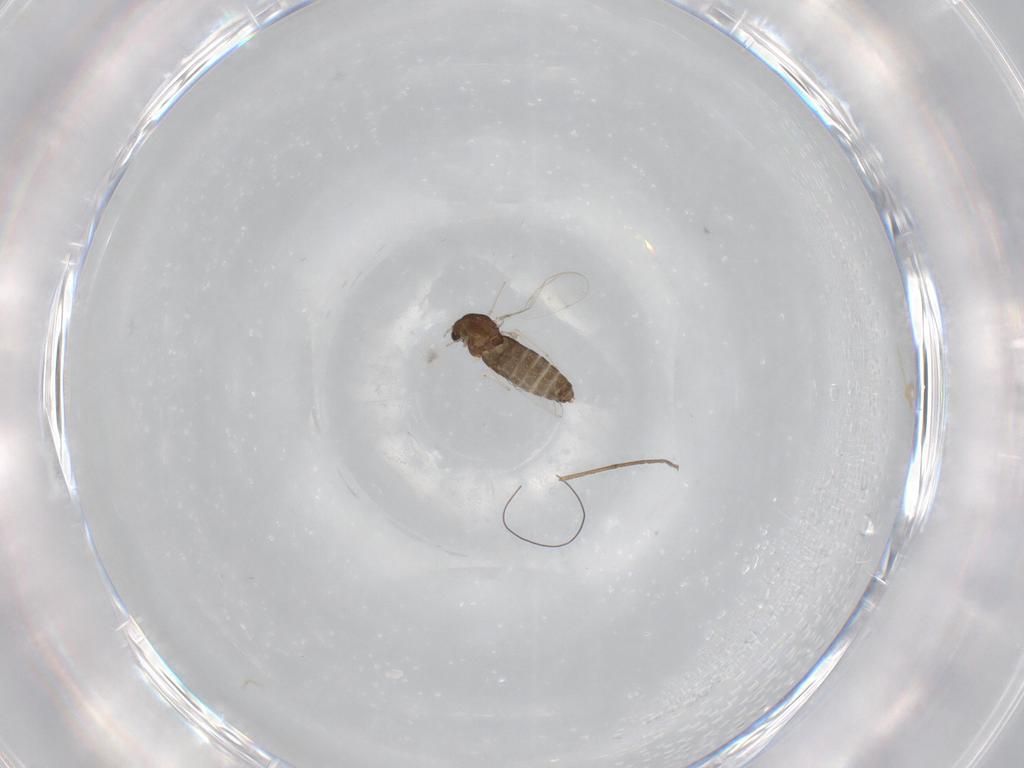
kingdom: Animalia
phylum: Arthropoda
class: Insecta
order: Diptera
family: Chironomidae
